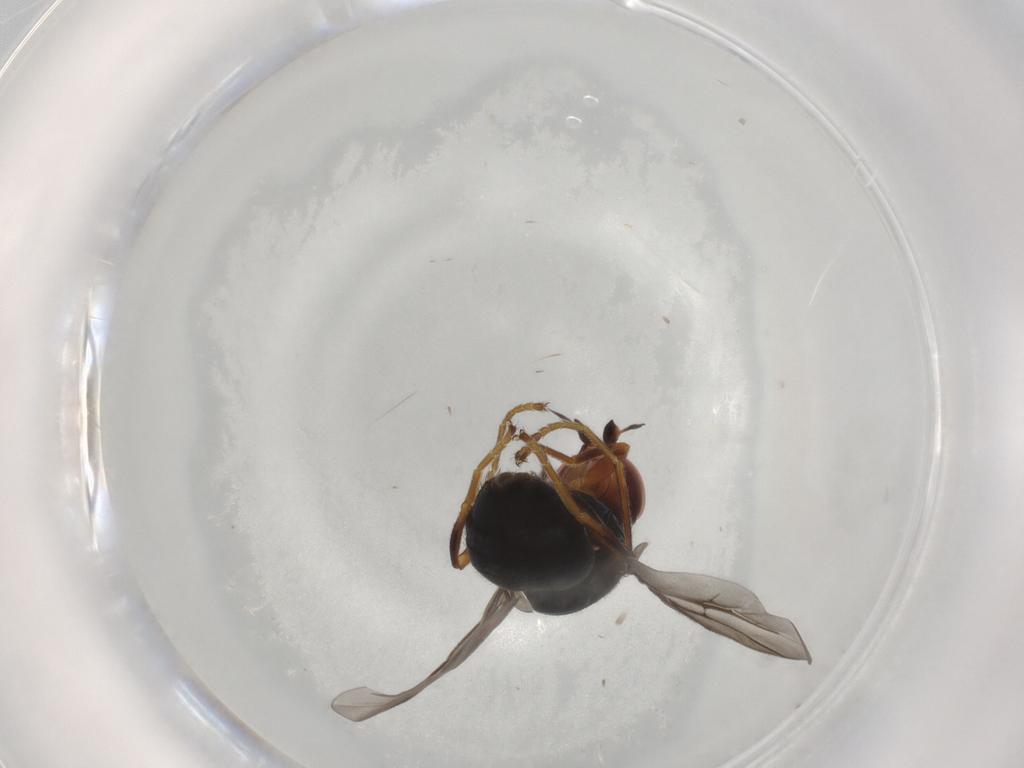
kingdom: Animalia
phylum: Arthropoda
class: Insecta
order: Diptera
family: Chloropidae
